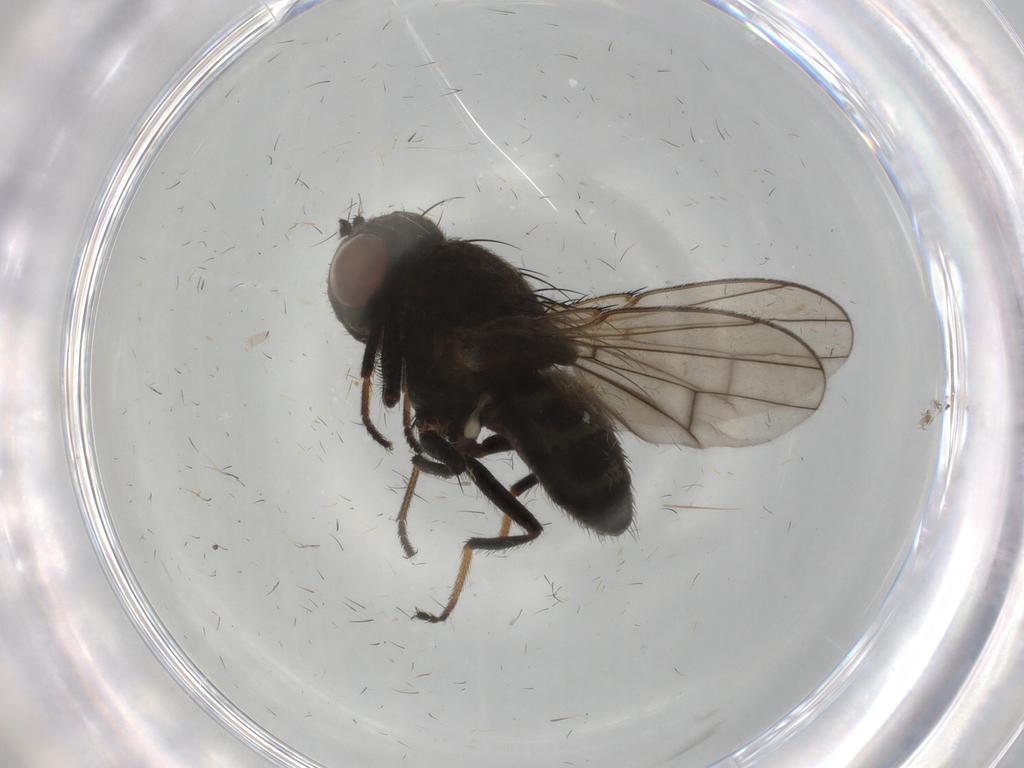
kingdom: Animalia
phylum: Arthropoda
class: Insecta
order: Diptera
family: Ephydridae
